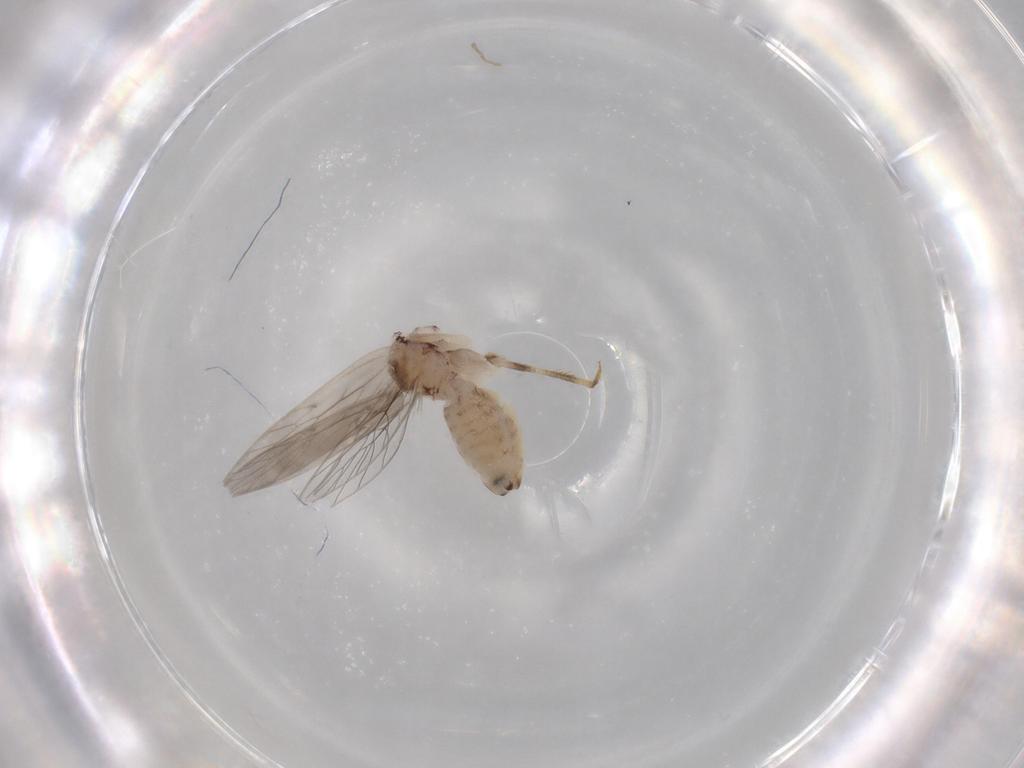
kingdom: Animalia
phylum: Arthropoda
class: Insecta
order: Psocodea
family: Lepidopsocidae
